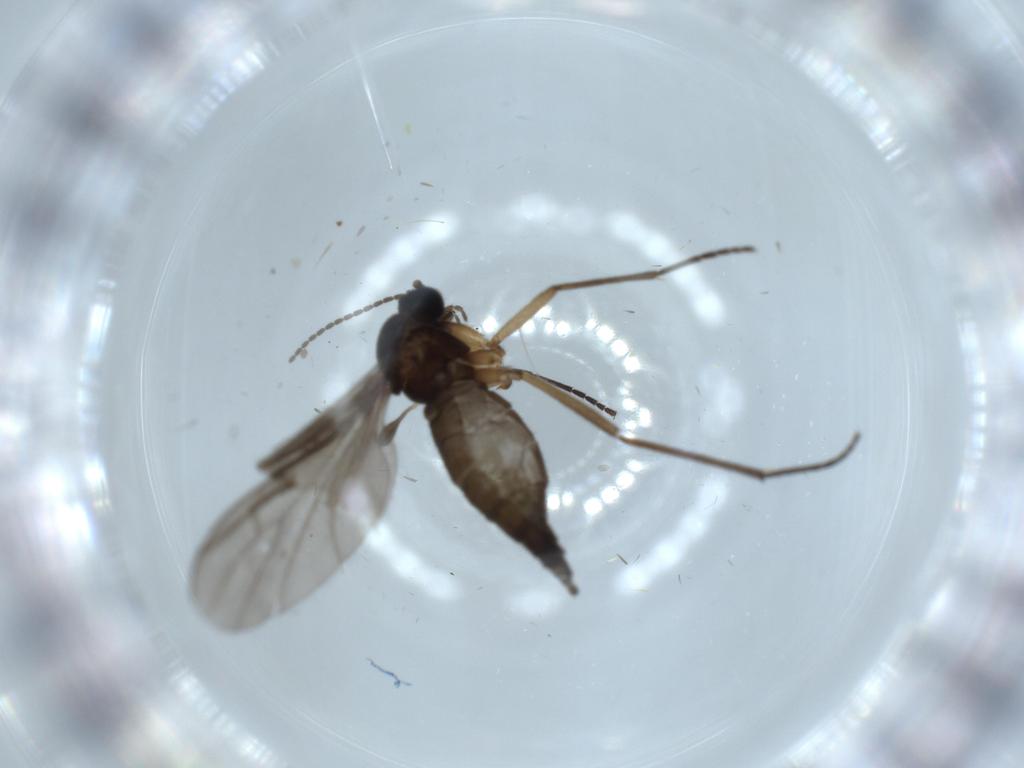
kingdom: Animalia
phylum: Arthropoda
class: Insecta
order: Diptera
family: Sciaridae
